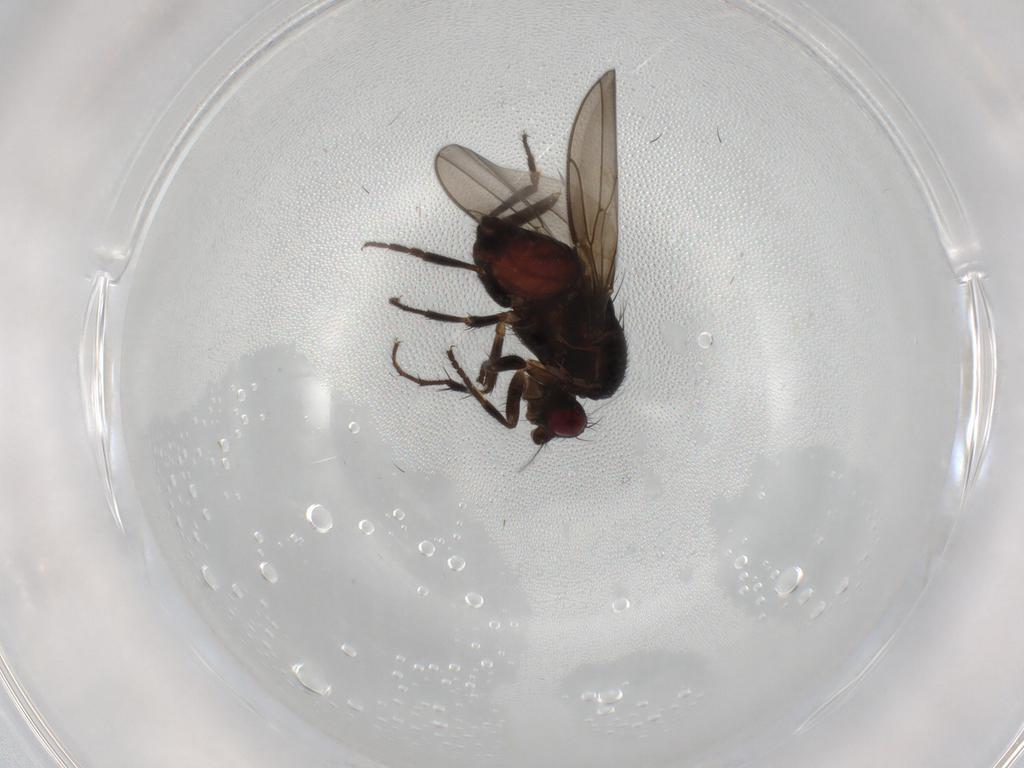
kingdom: Animalia
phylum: Arthropoda
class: Insecta
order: Diptera
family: Sphaeroceridae
